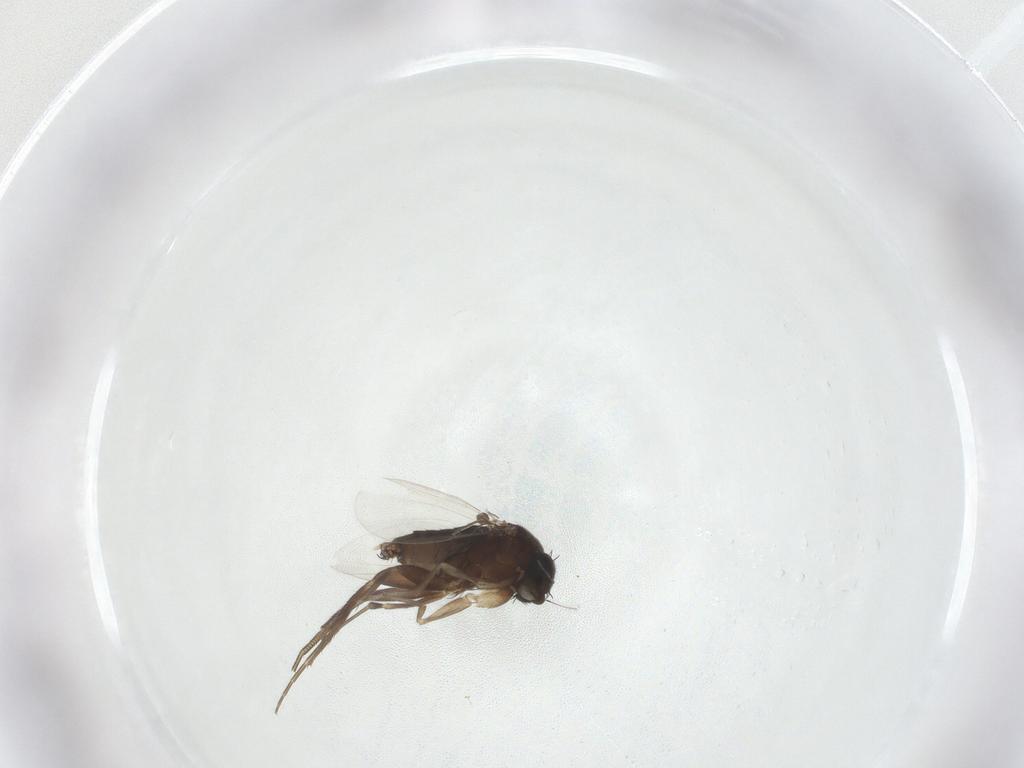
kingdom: Animalia
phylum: Arthropoda
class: Insecta
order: Diptera
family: Phoridae
